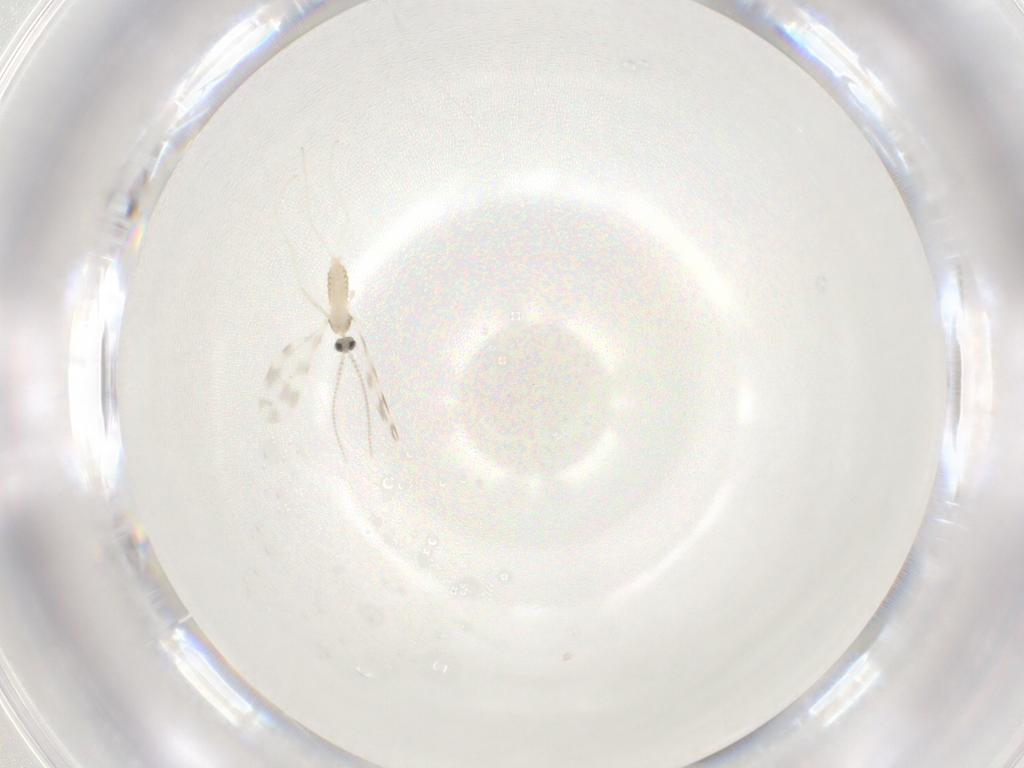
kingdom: Animalia
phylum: Arthropoda
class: Insecta
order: Diptera
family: Cecidomyiidae
